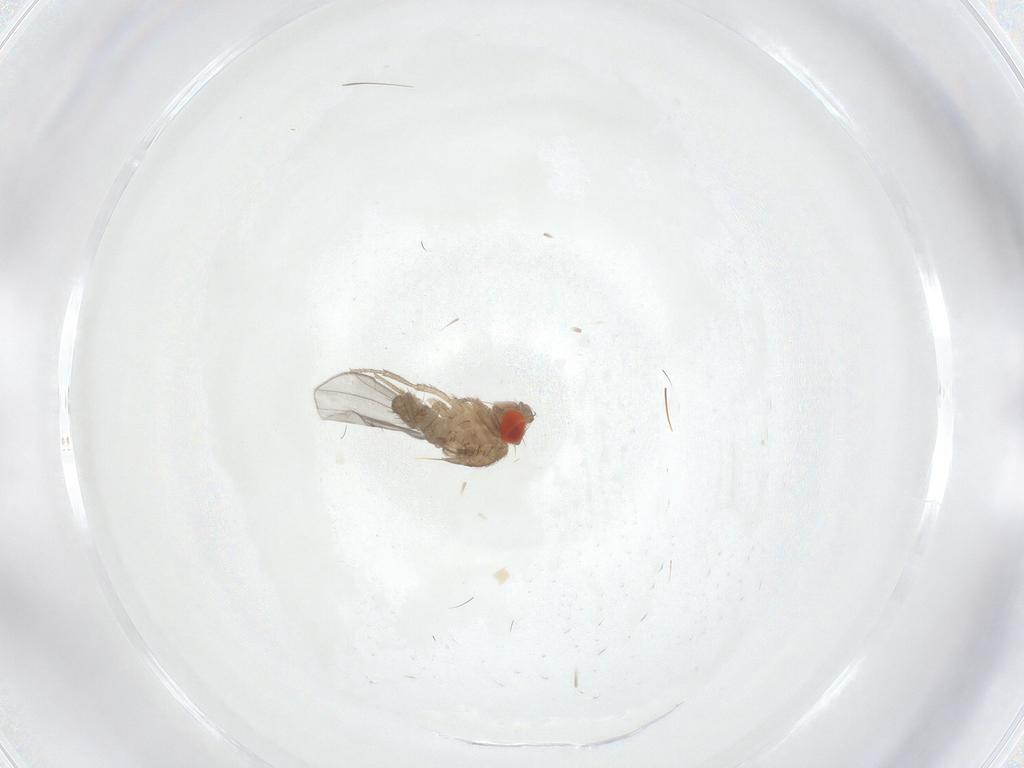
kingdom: Animalia
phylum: Arthropoda
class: Insecta
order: Diptera
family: Drosophilidae
